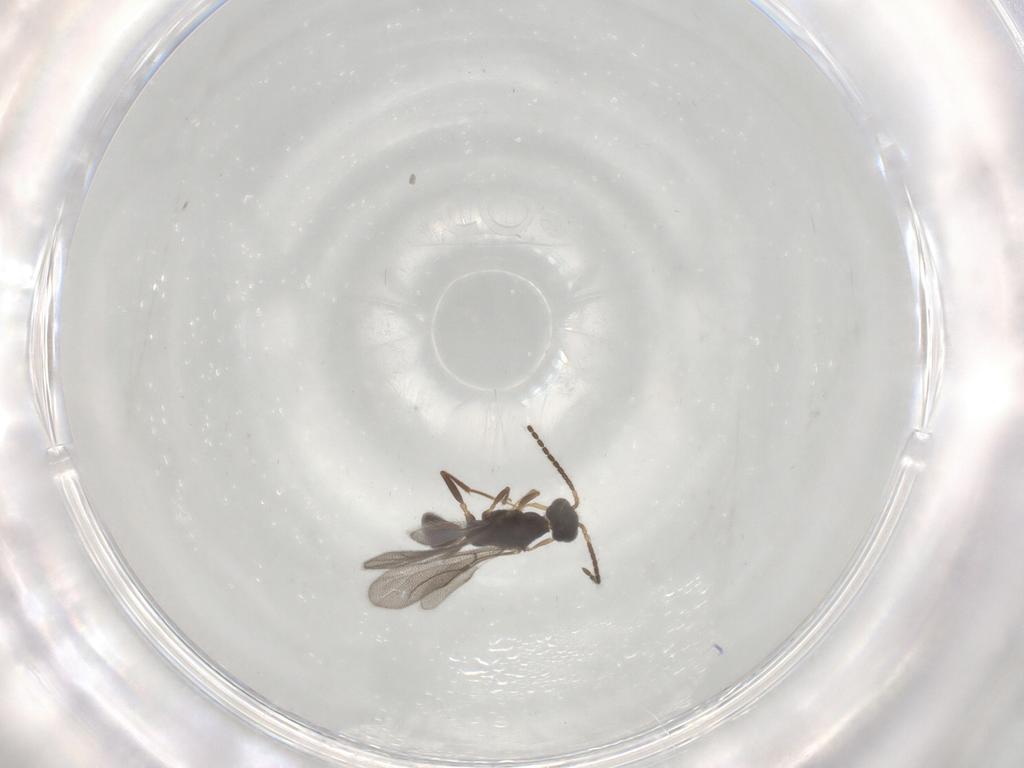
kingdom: Animalia
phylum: Arthropoda
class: Insecta
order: Hymenoptera
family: Bethylidae
